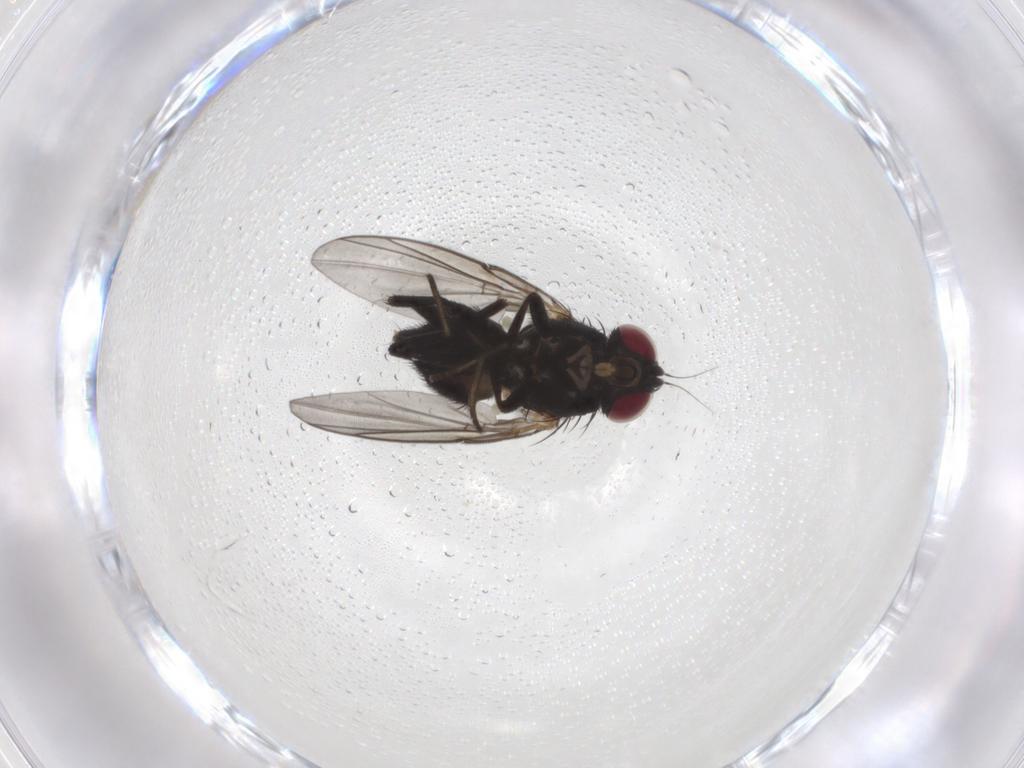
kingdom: Animalia
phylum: Arthropoda
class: Insecta
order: Diptera
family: Agromyzidae
